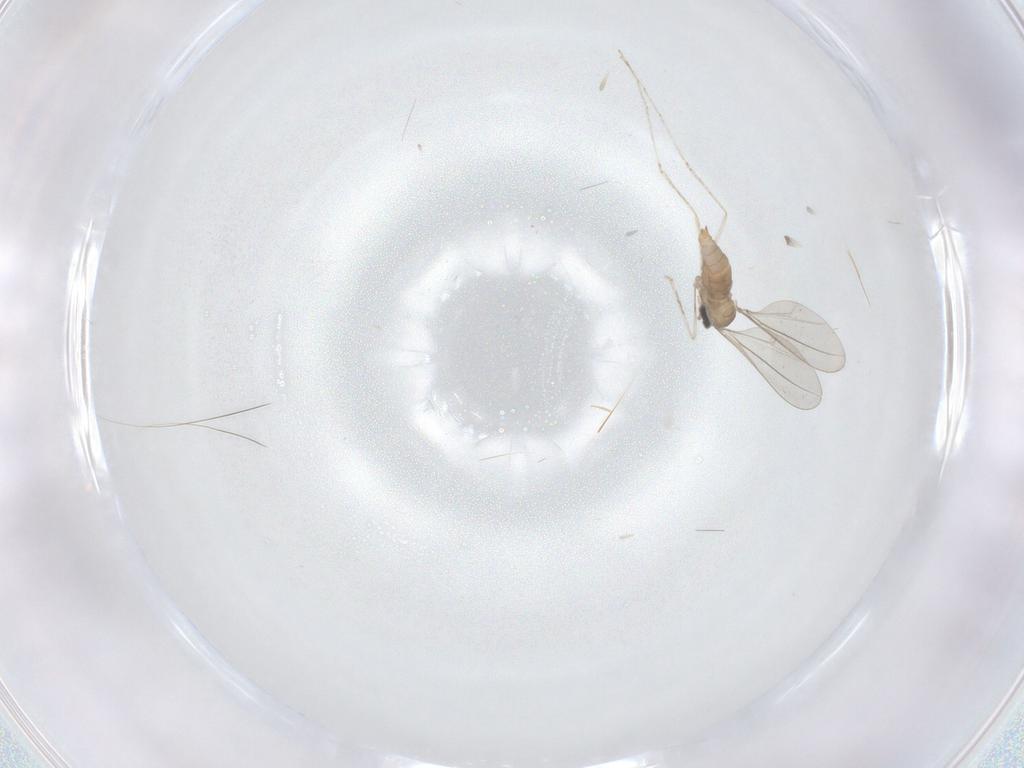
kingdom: Animalia
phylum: Arthropoda
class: Insecta
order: Diptera
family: Cecidomyiidae
